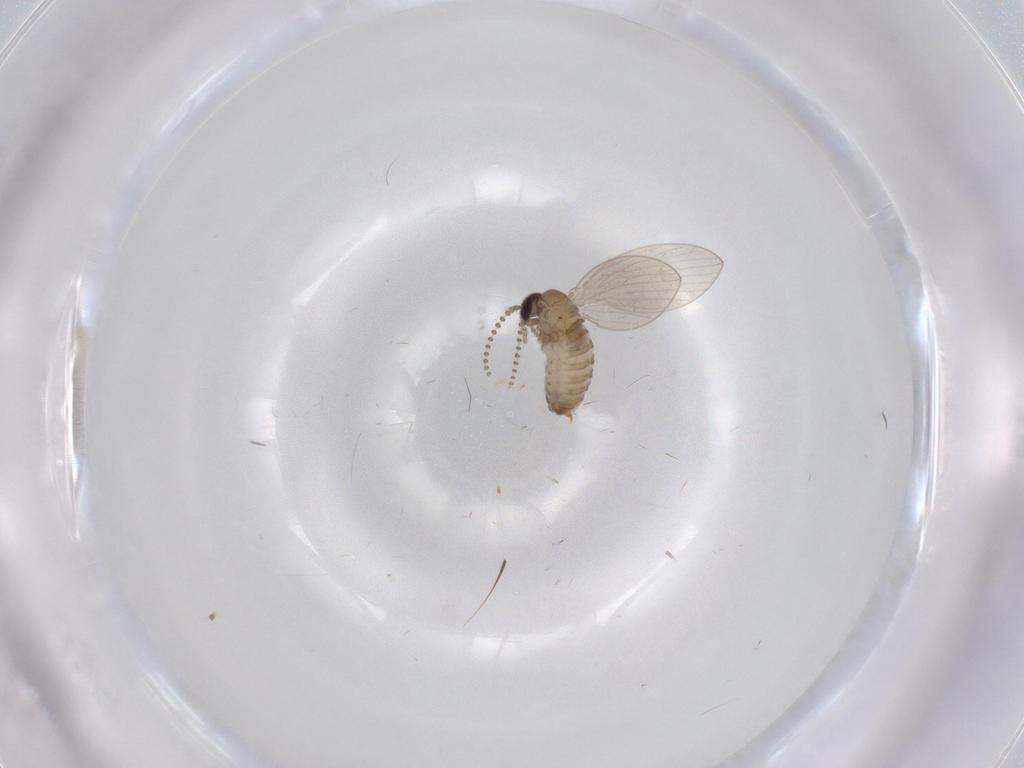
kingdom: Animalia
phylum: Arthropoda
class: Insecta
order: Diptera
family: Psychodidae
